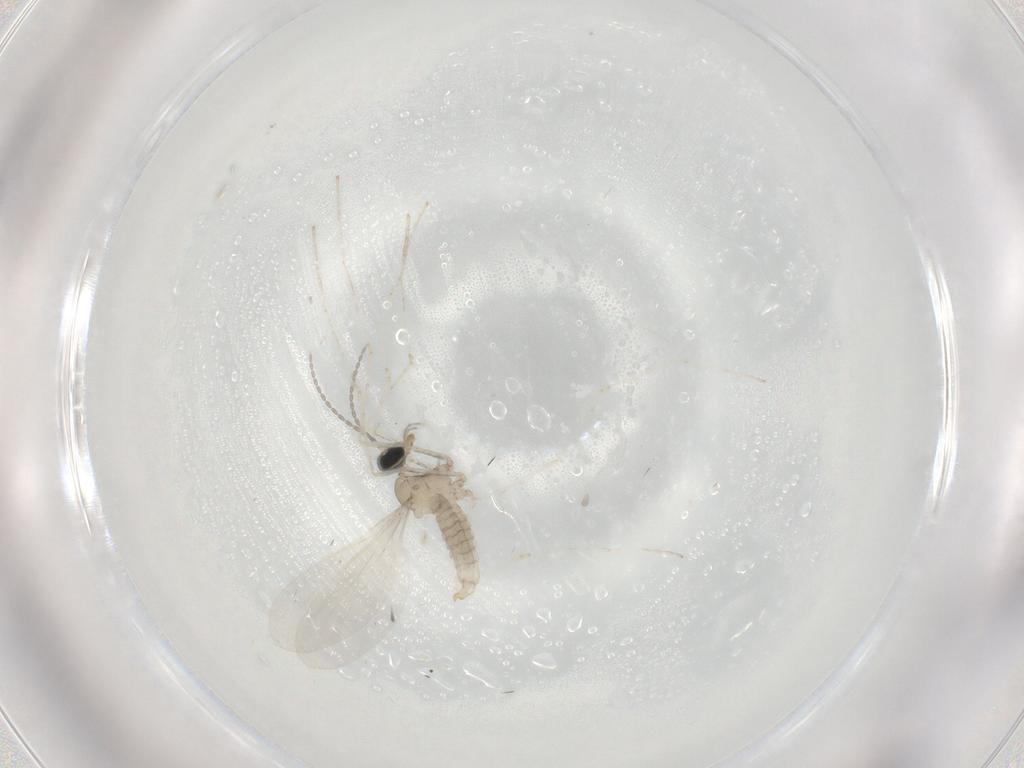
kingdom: Animalia
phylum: Arthropoda
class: Insecta
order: Diptera
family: Cecidomyiidae
